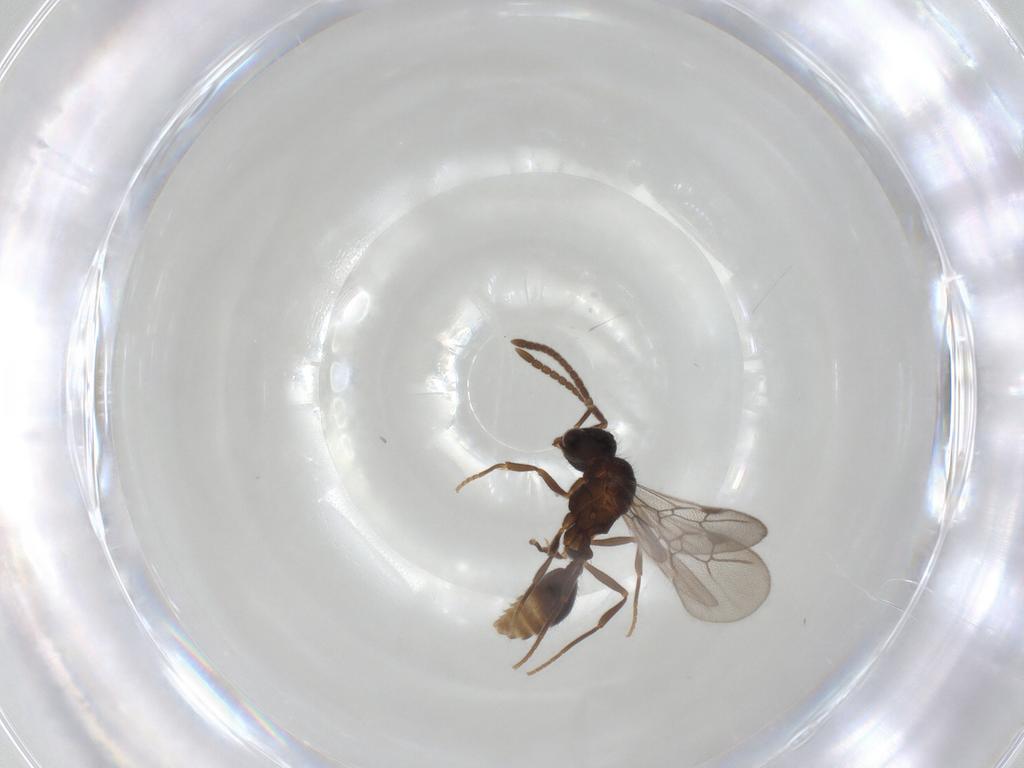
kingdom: Animalia
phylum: Arthropoda
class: Insecta
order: Hymenoptera
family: Formicidae
